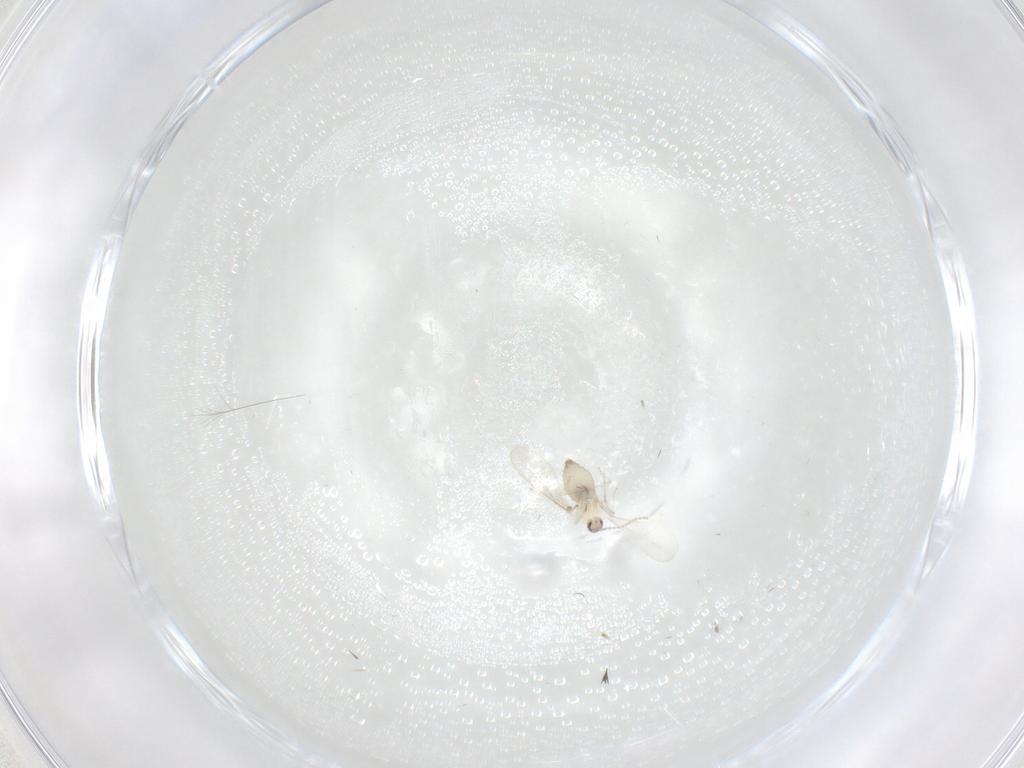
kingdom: Animalia
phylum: Arthropoda
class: Insecta
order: Diptera
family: Cecidomyiidae
